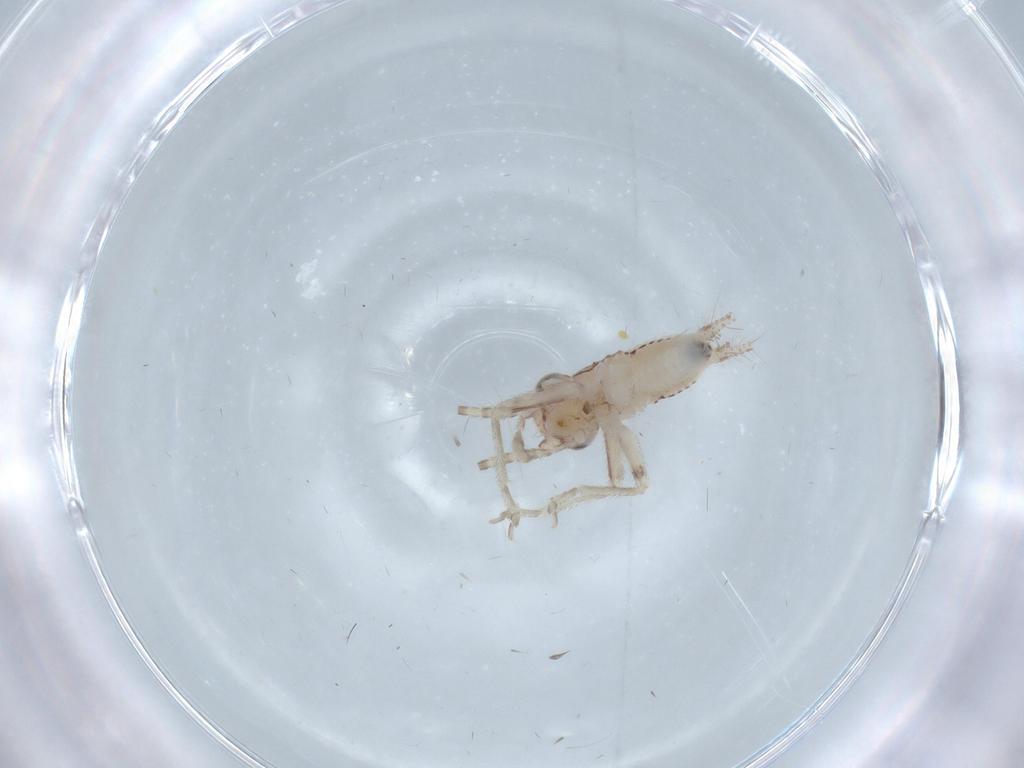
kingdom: Animalia
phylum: Arthropoda
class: Insecta
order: Orthoptera
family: Trigonidiidae
